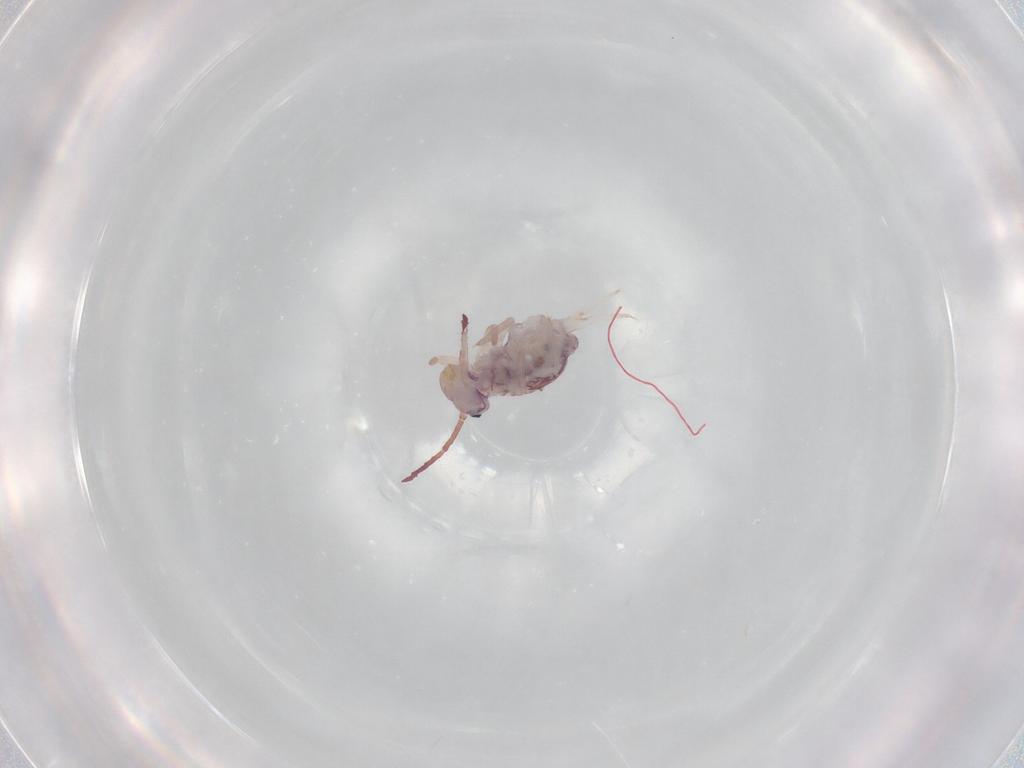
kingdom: Animalia
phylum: Arthropoda
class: Collembola
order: Symphypleona
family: Dicyrtomidae
